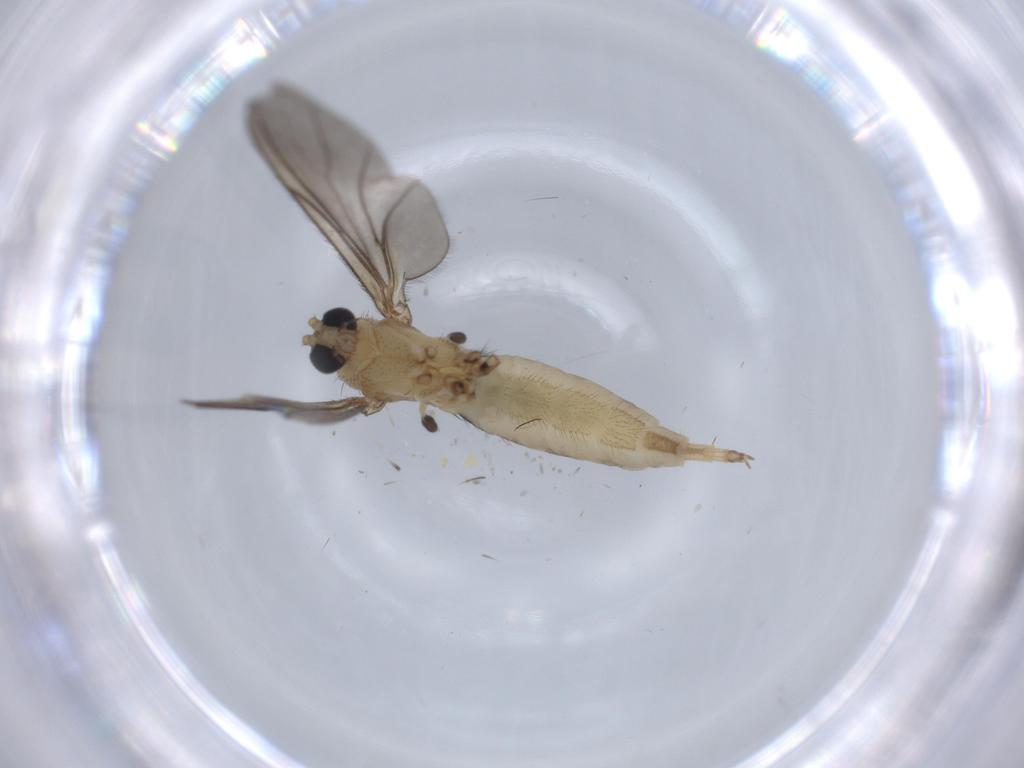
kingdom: Animalia
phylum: Arthropoda
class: Insecta
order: Diptera
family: Sciaridae
